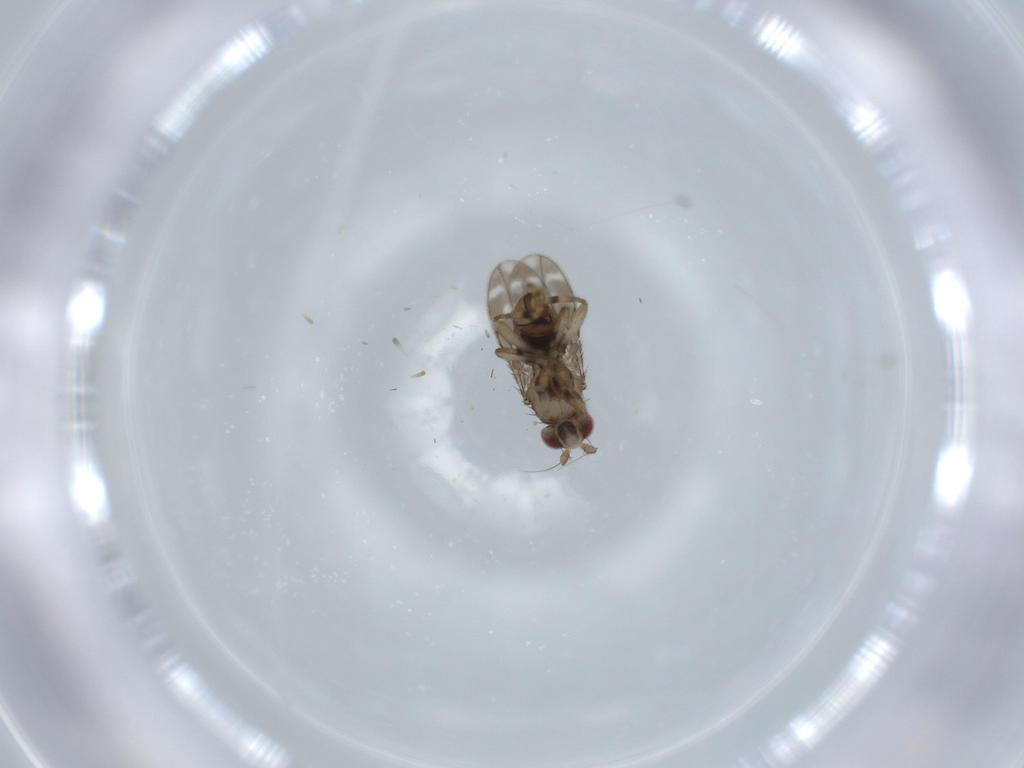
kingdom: Animalia
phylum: Arthropoda
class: Insecta
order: Diptera
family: Sphaeroceridae
